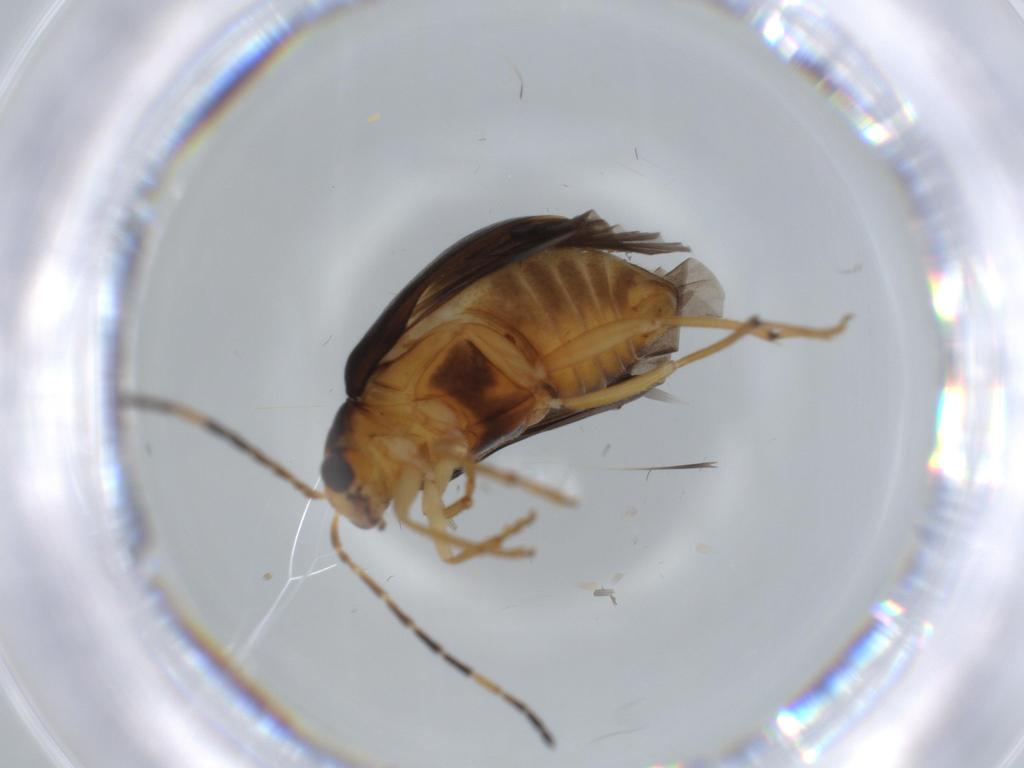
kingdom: Animalia
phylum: Arthropoda
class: Insecta
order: Coleoptera
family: Chrysomelidae
